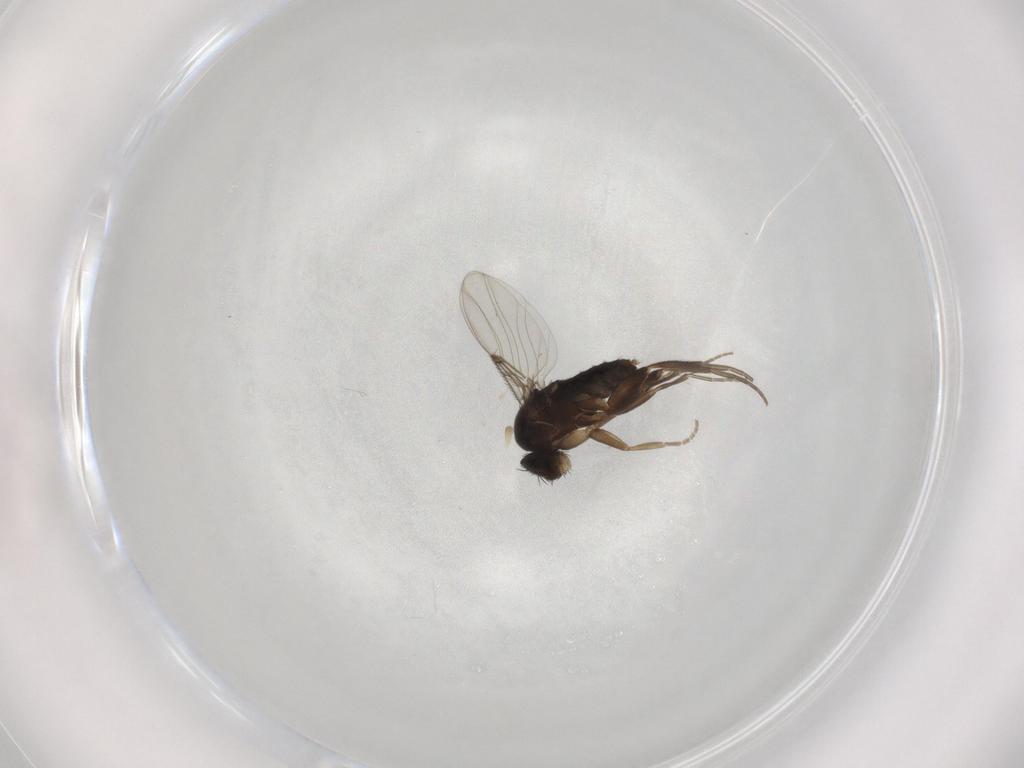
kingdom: Animalia
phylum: Arthropoda
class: Insecta
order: Diptera
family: Phoridae
